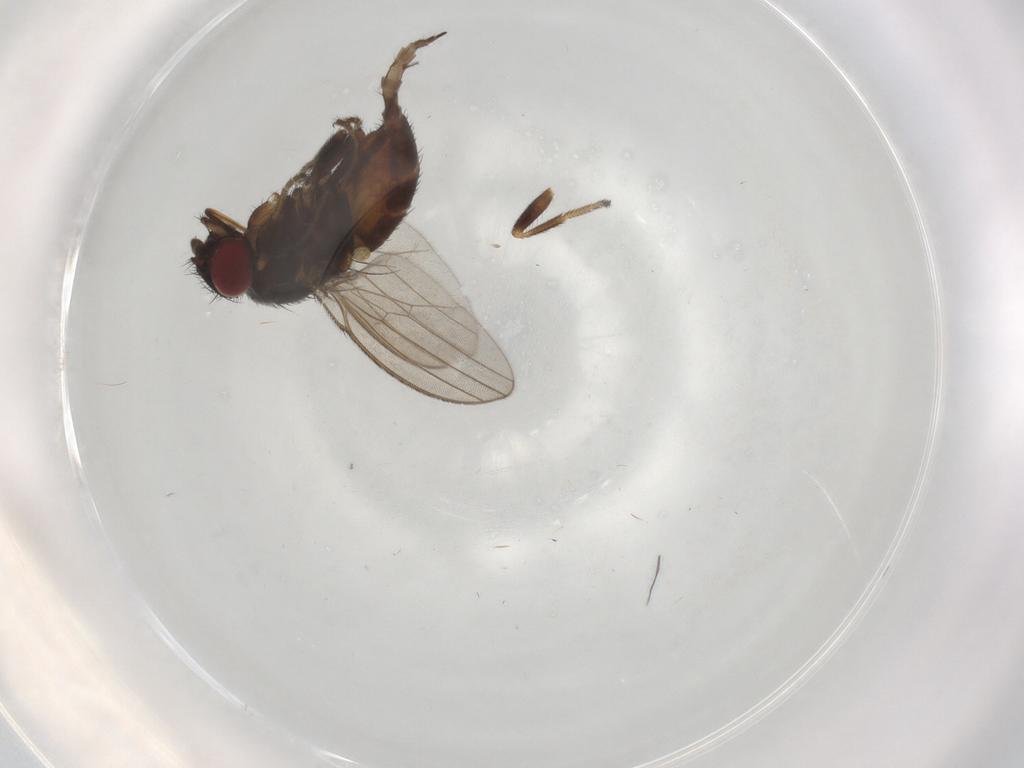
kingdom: Animalia
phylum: Arthropoda
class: Insecta
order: Diptera
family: Milichiidae
